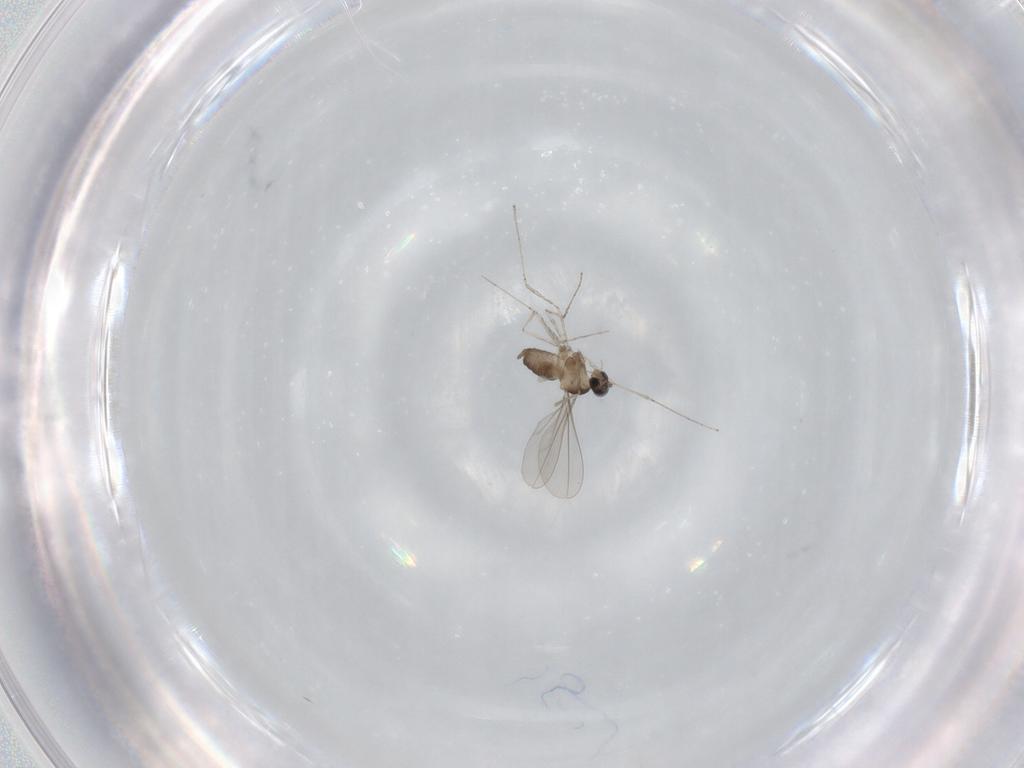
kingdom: Animalia
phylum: Arthropoda
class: Insecta
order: Diptera
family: Cecidomyiidae
